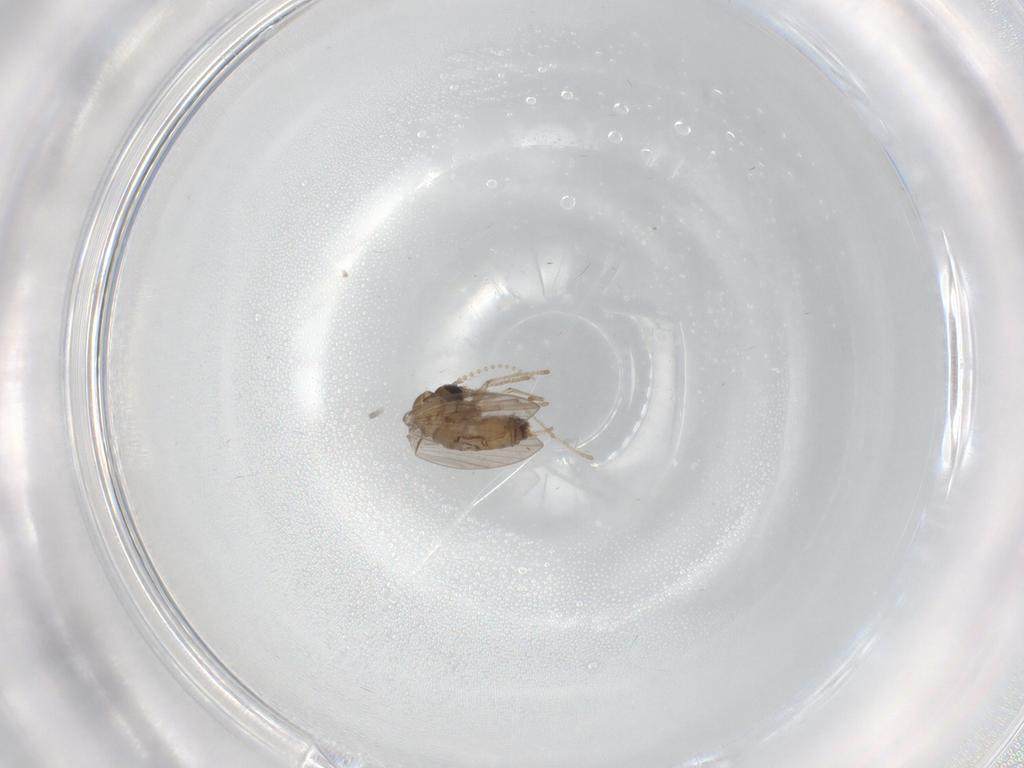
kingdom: Animalia
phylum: Arthropoda
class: Insecta
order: Diptera
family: Psychodidae
